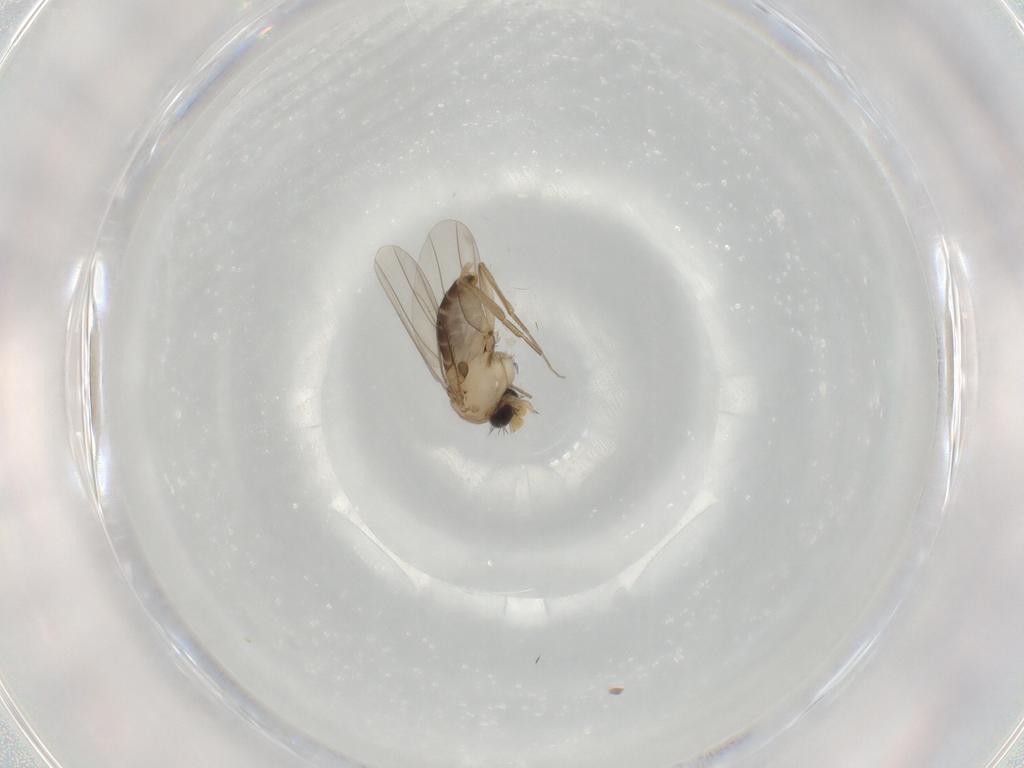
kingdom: Animalia
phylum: Arthropoda
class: Insecta
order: Diptera
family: Phoridae
